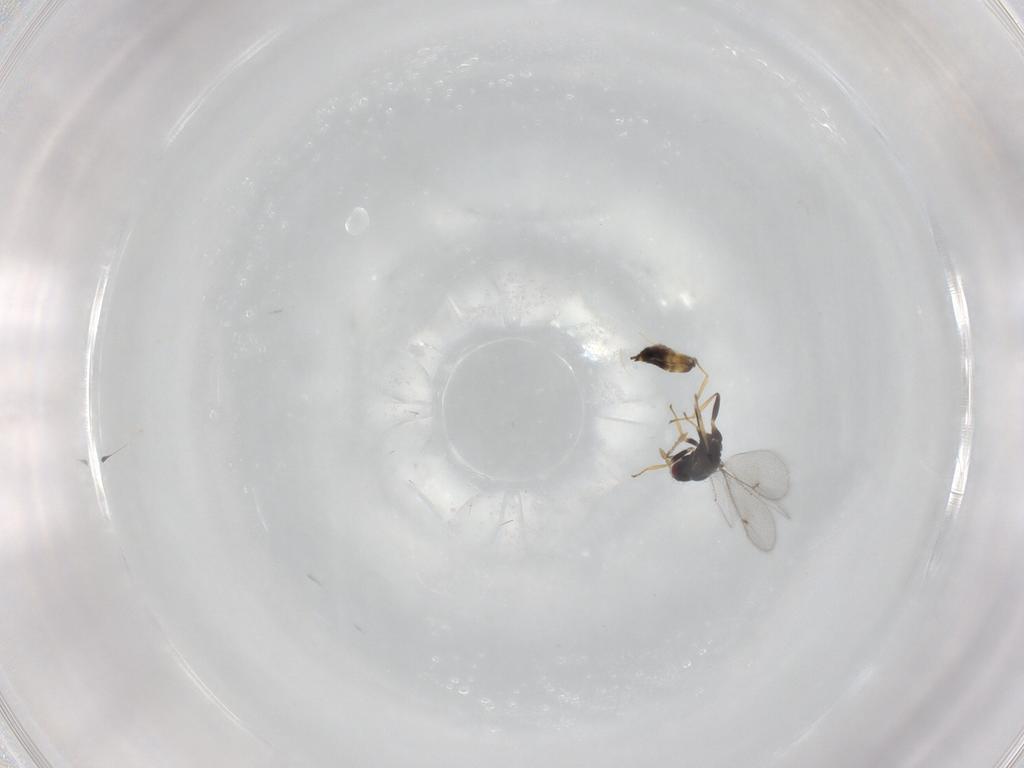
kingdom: Animalia
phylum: Arthropoda
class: Insecta
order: Hymenoptera
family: Eulophidae
